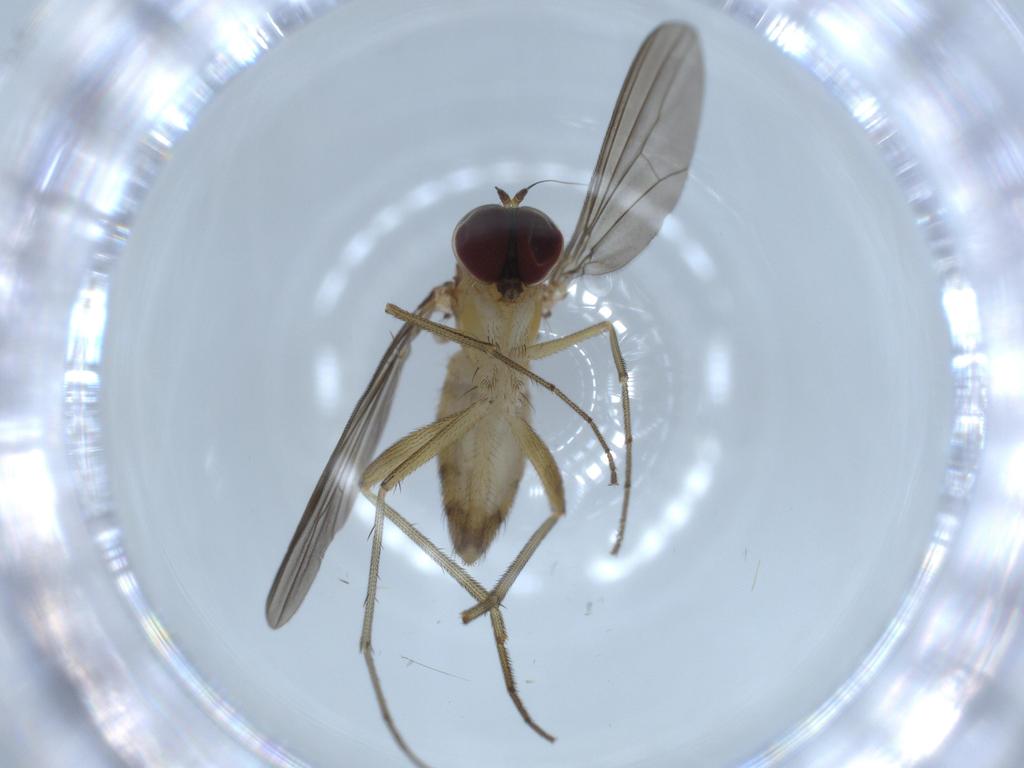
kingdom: Animalia
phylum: Arthropoda
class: Insecta
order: Diptera
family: Dolichopodidae
